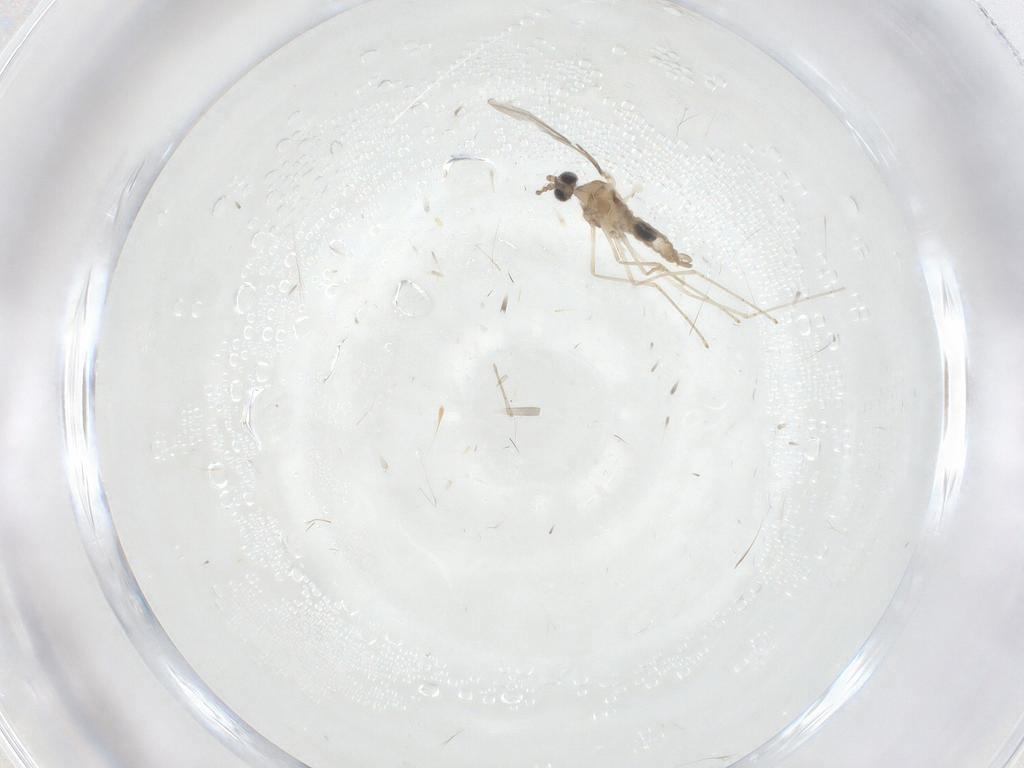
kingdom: Animalia
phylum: Arthropoda
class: Insecta
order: Diptera
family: Cecidomyiidae
